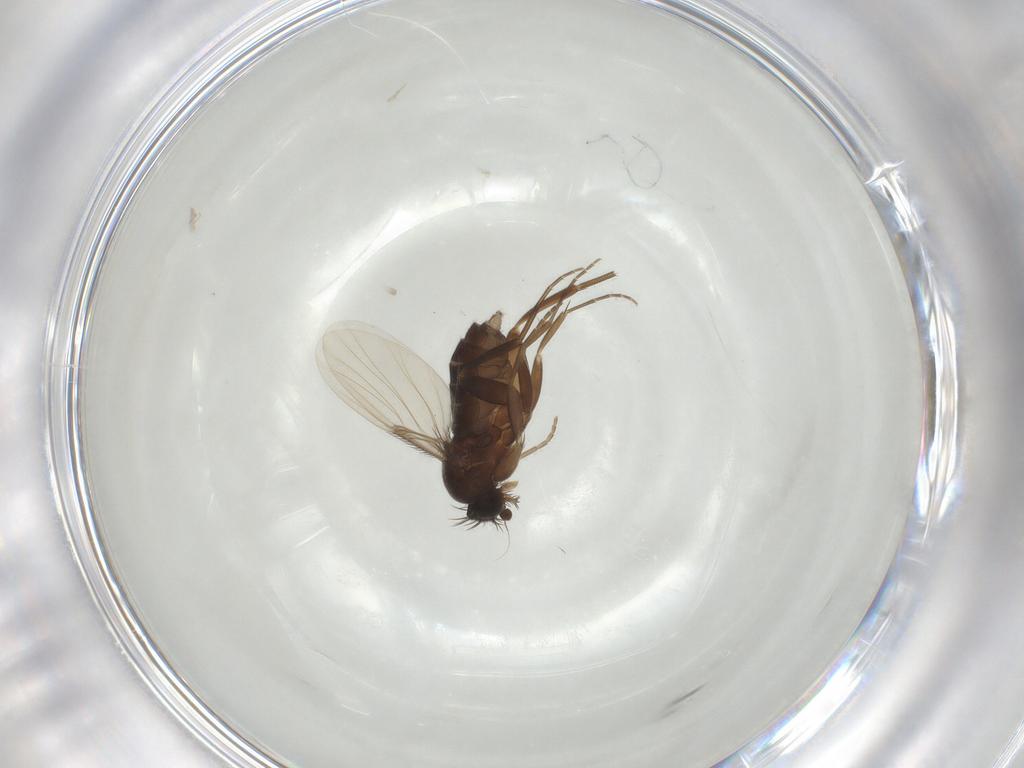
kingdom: Animalia
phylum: Arthropoda
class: Insecta
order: Diptera
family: Phoridae
